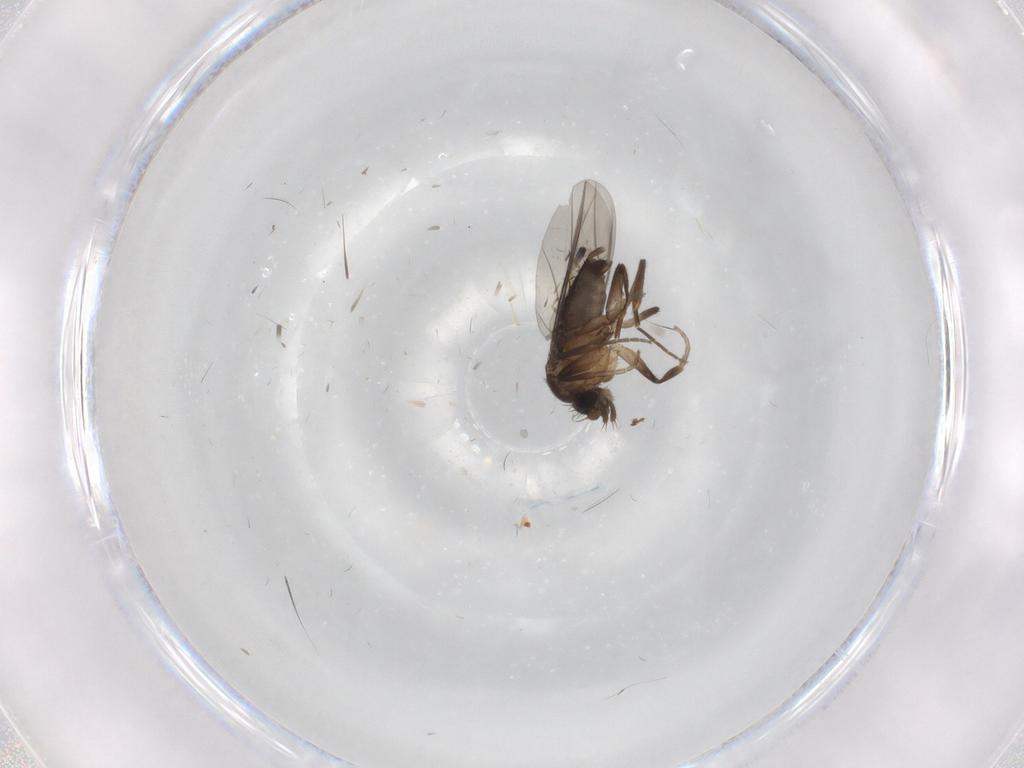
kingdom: Animalia
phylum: Arthropoda
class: Insecta
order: Diptera
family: Phoridae
